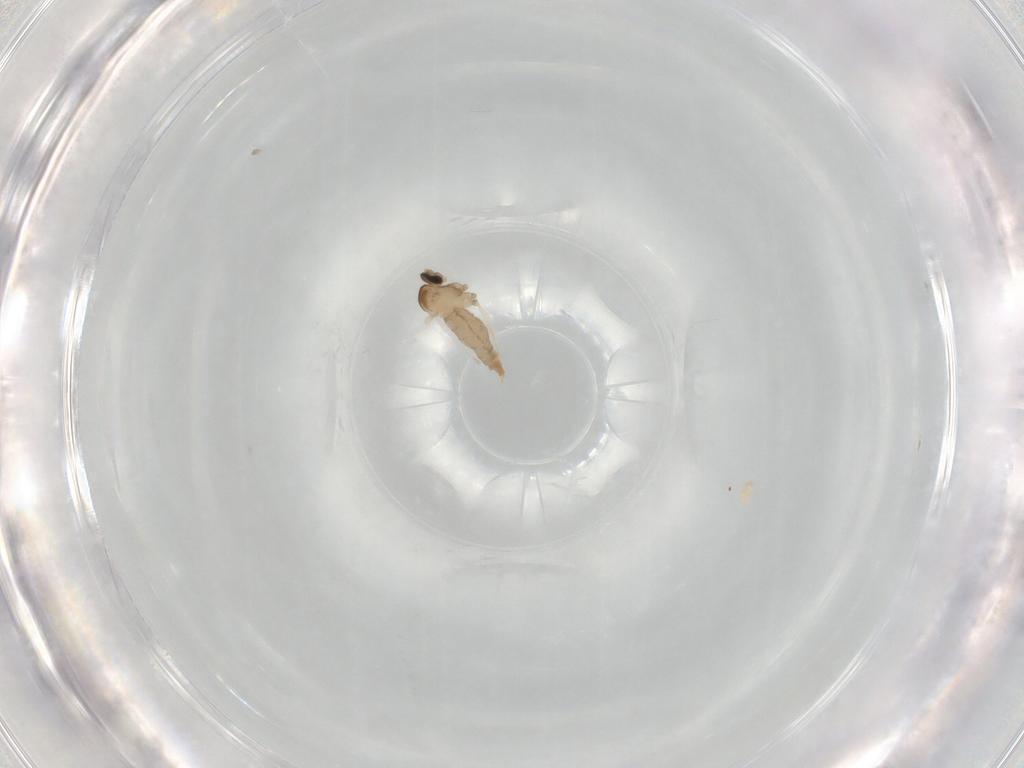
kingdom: Animalia
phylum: Arthropoda
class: Insecta
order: Diptera
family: Cecidomyiidae
